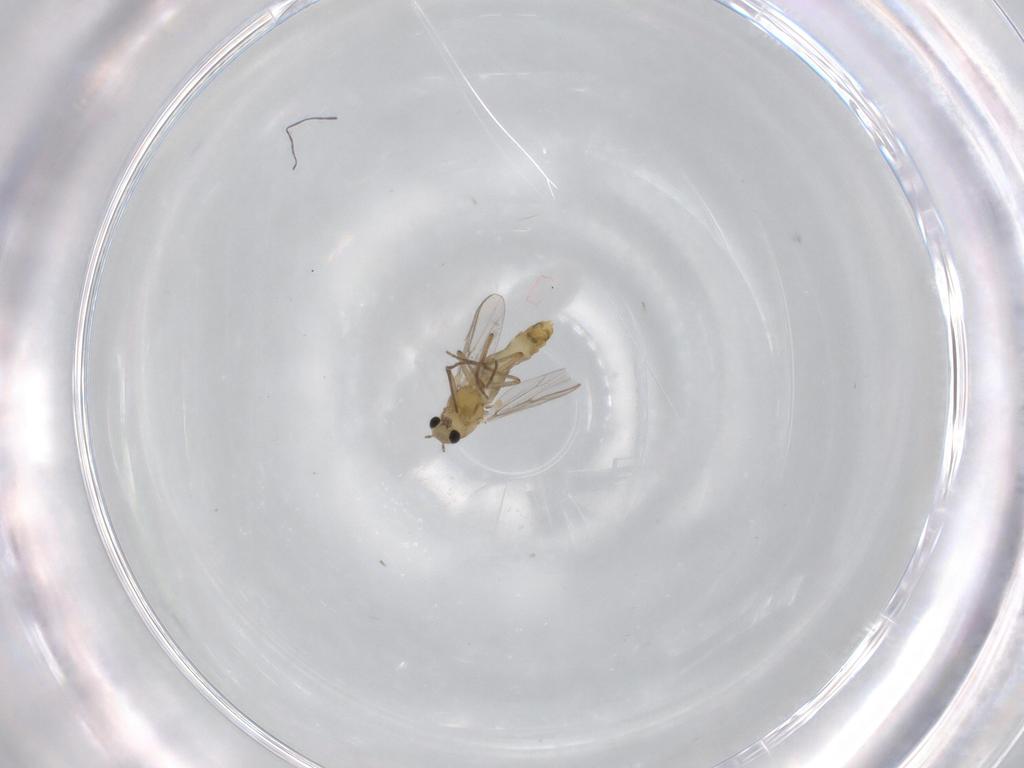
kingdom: Animalia
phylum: Arthropoda
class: Insecta
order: Diptera
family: Chironomidae
